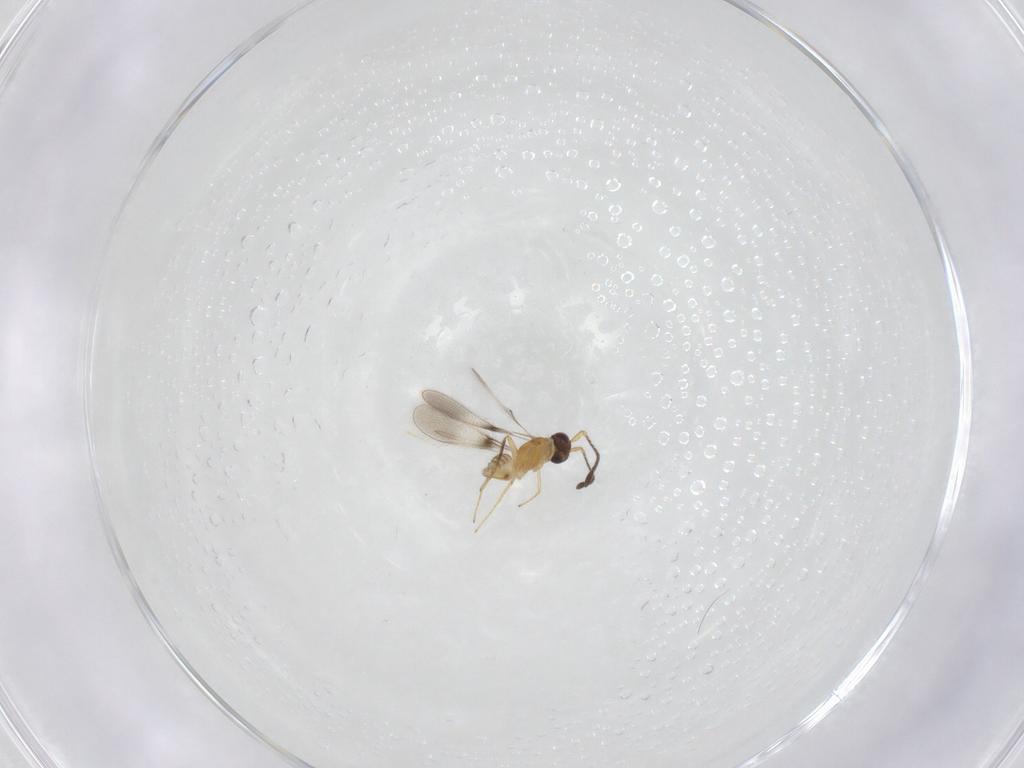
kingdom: Animalia
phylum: Arthropoda
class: Insecta
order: Hymenoptera
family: Mymaridae
